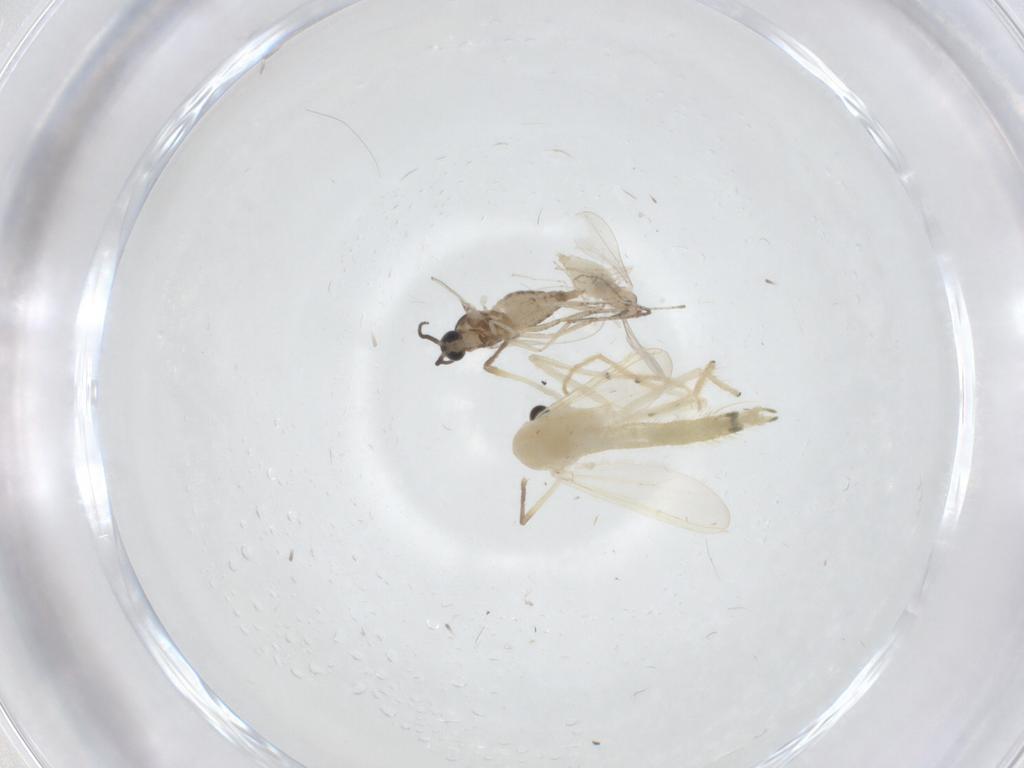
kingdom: Animalia
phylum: Arthropoda
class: Insecta
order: Diptera
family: Chironomidae
